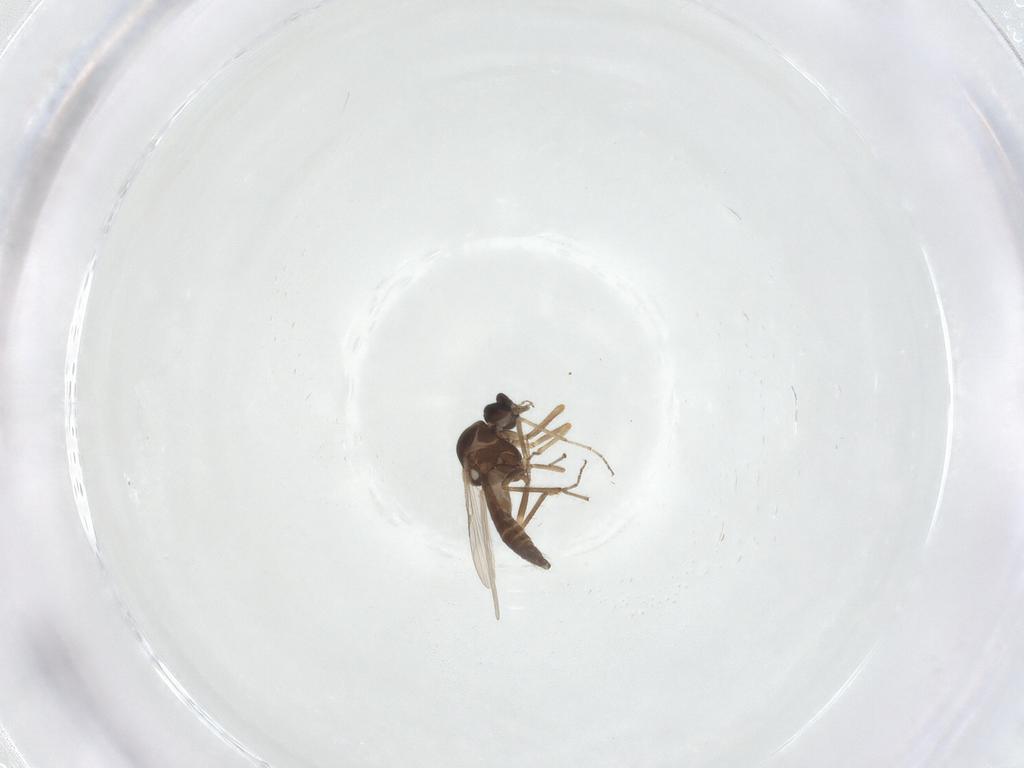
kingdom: Animalia
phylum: Arthropoda
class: Insecta
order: Diptera
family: Ceratopogonidae
